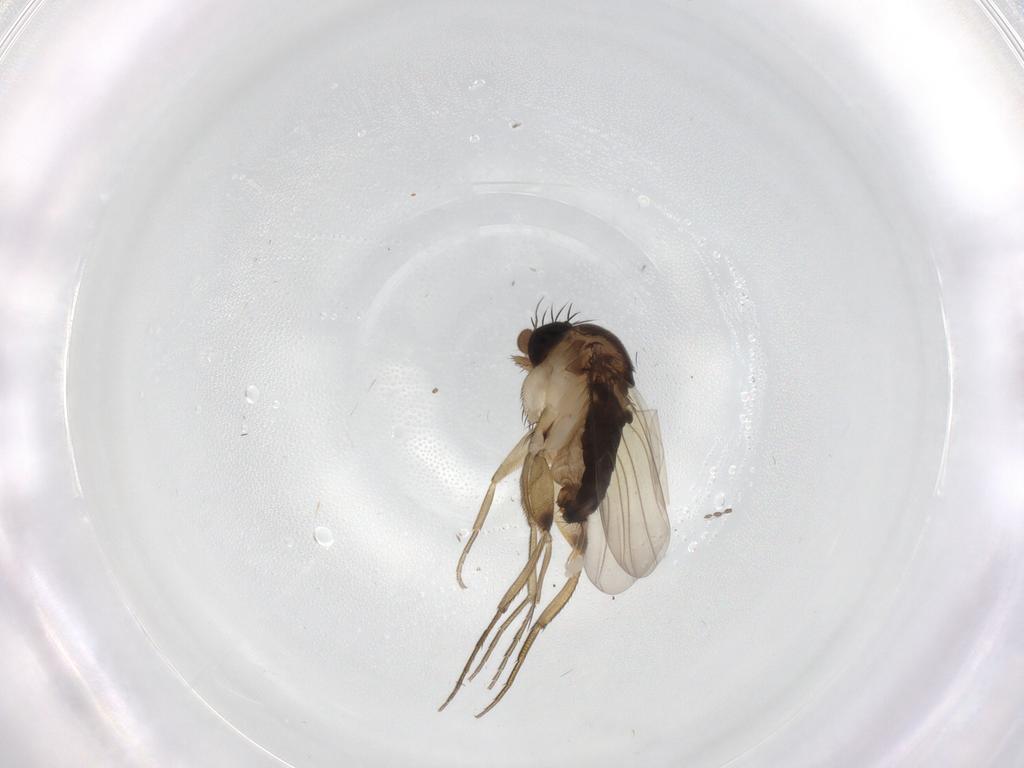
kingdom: Animalia
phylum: Arthropoda
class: Insecta
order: Diptera
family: Phoridae
